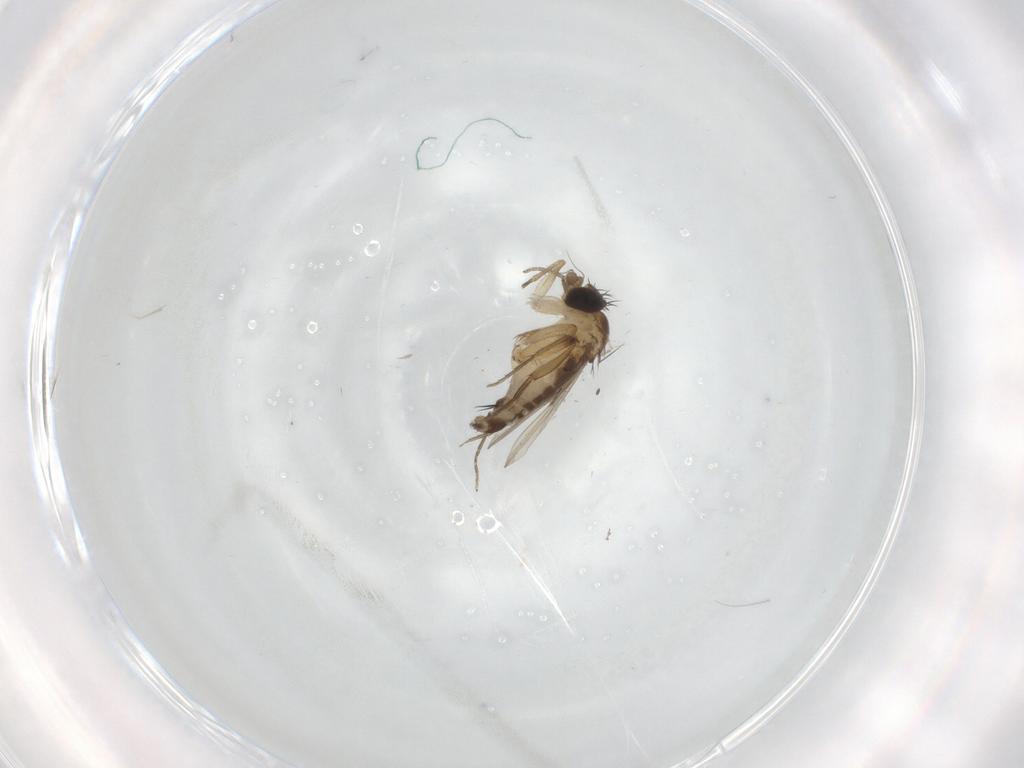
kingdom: Animalia
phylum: Arthropoda
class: Insecta
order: Diptera
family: Phoridae
